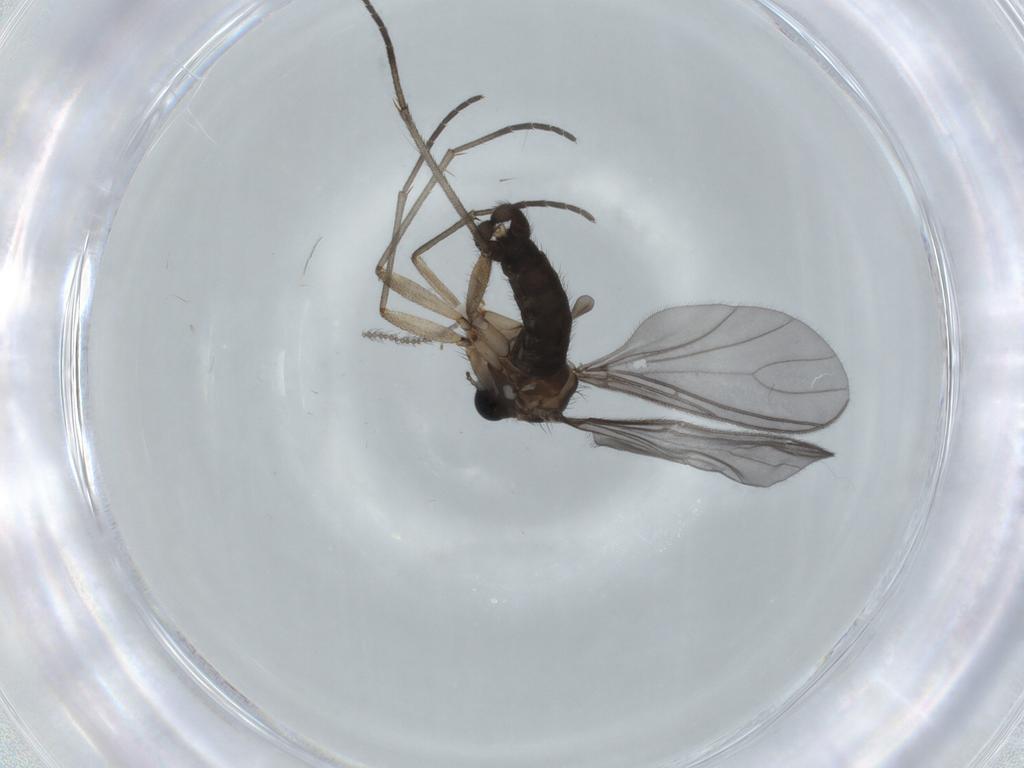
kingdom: Animalia
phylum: Arthropoda
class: Insecta
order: Diptera
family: Sciaridae
